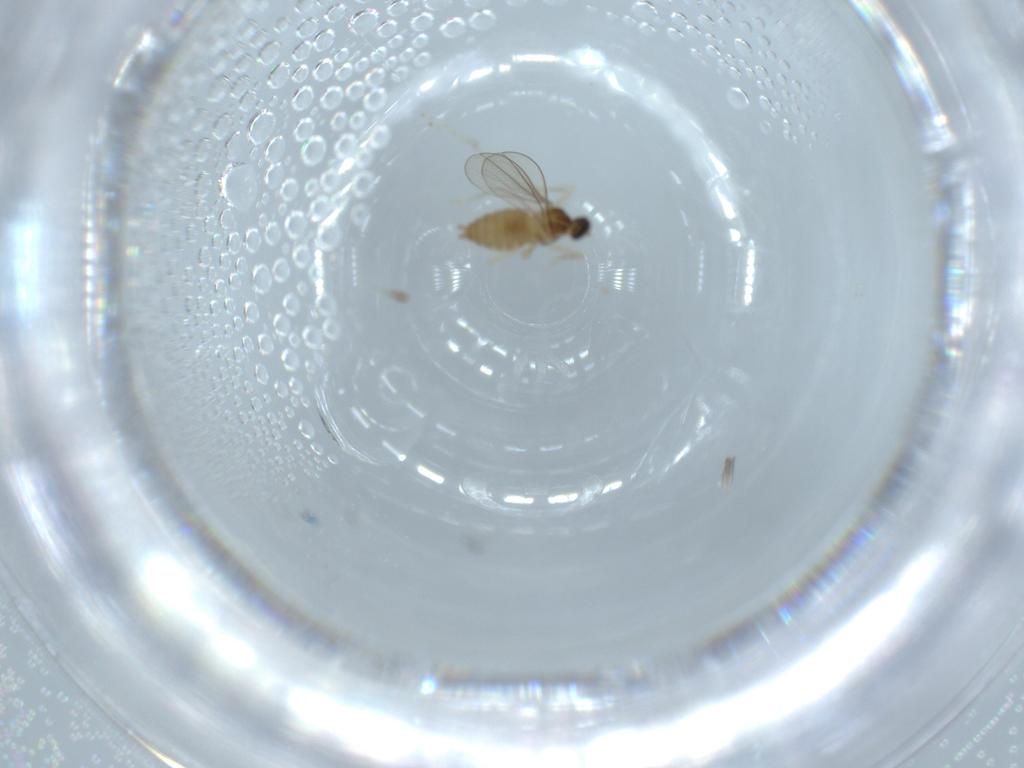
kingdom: Animalia
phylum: Arthropoda
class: Insecta
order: Diptera
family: Cecidomyiidae
